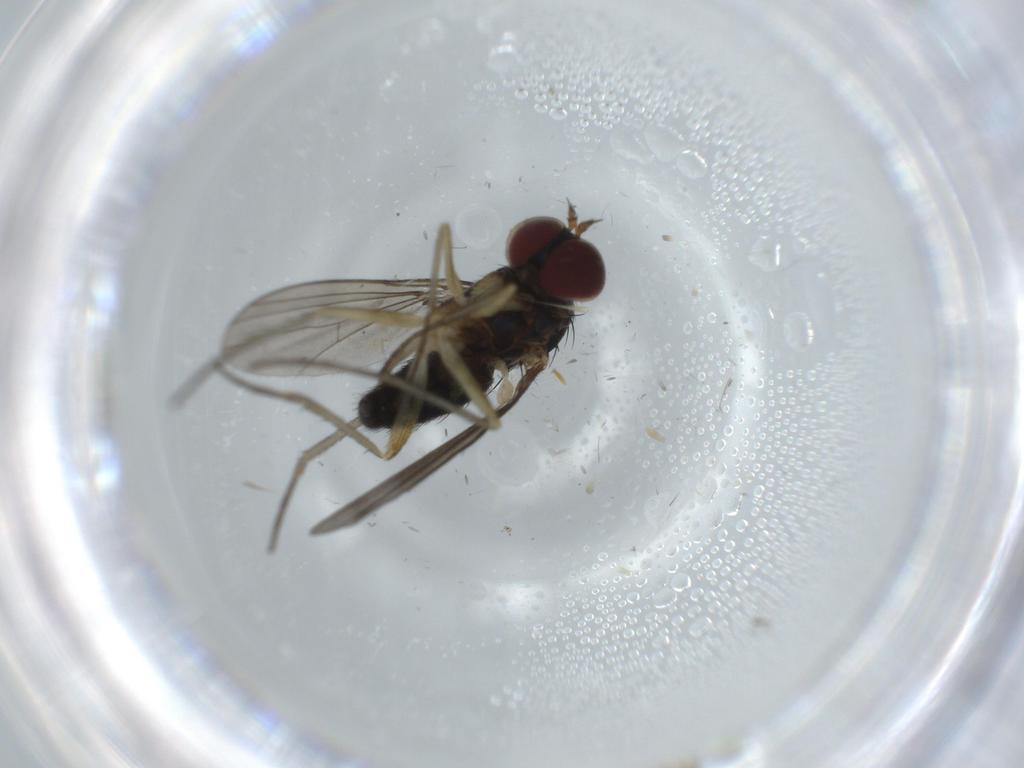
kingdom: Animalia
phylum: Arthropoda
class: Insecta
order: Diptera
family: Dolichopodidae
